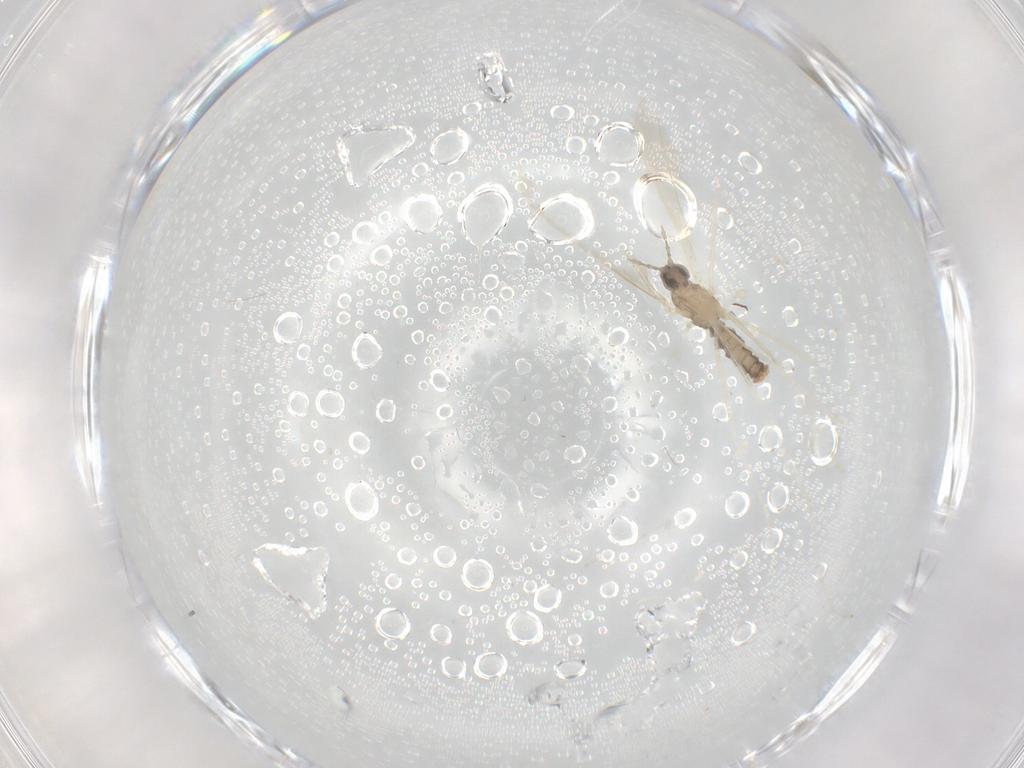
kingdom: Animalia
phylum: Arthropoda
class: Insecta
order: Diptera
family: Cecidomyiidae
